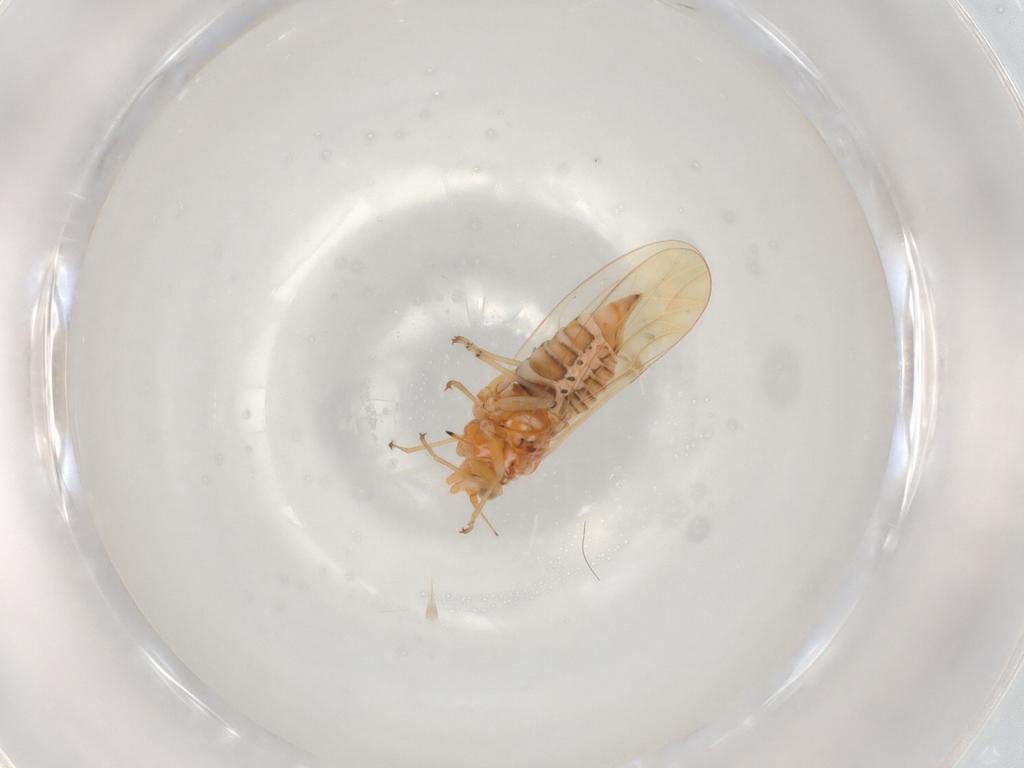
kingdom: Animalia
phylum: Arthropoda
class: Insecta
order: Hemiptera
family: Psyllidae
